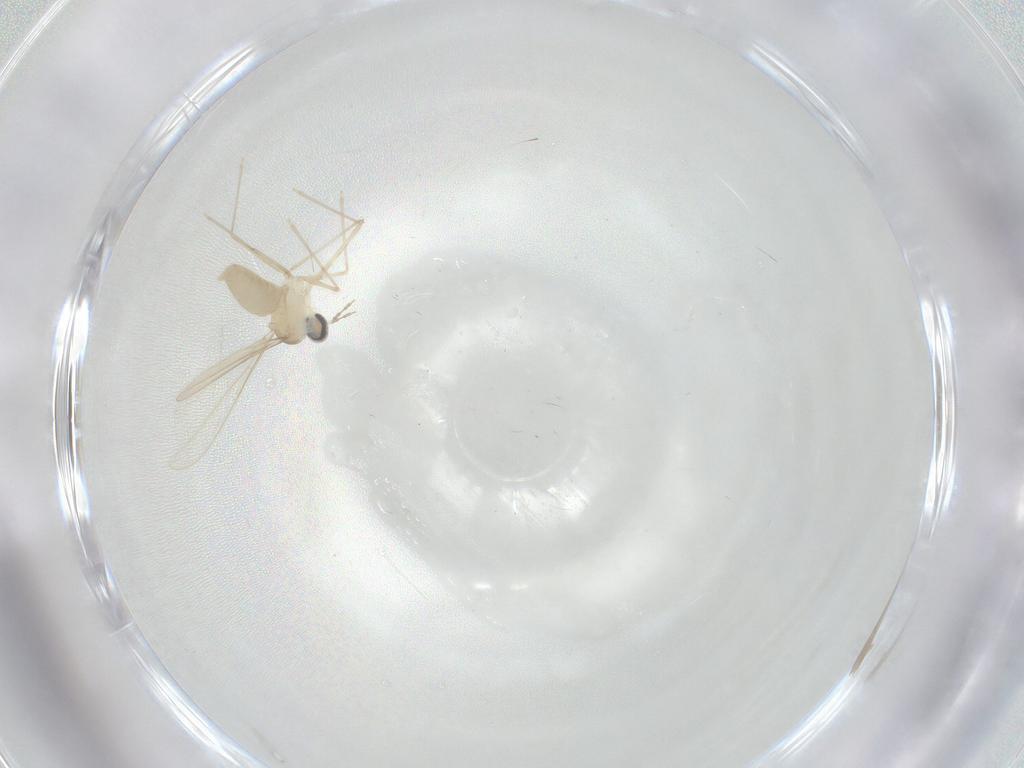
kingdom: Animalia
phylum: Arthropoda
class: Insecta
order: Diptera
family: Cecidomyiidae
